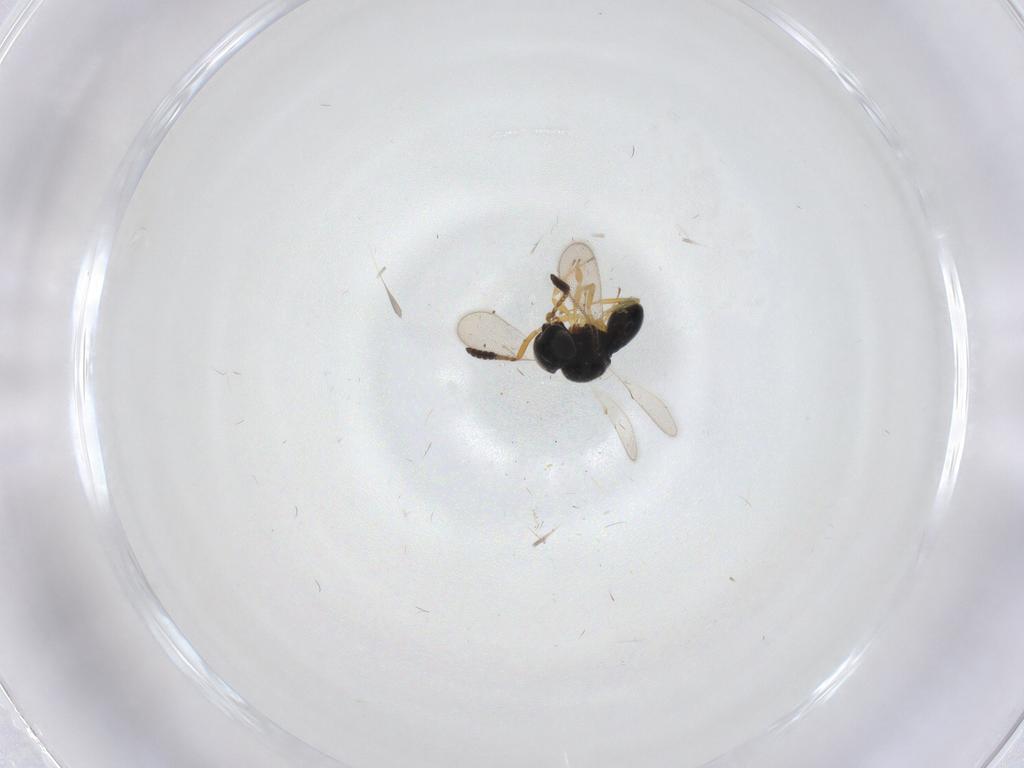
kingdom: Animalia
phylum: Arthropoda
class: Insecta
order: Hymenoptera
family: Scelionidae
